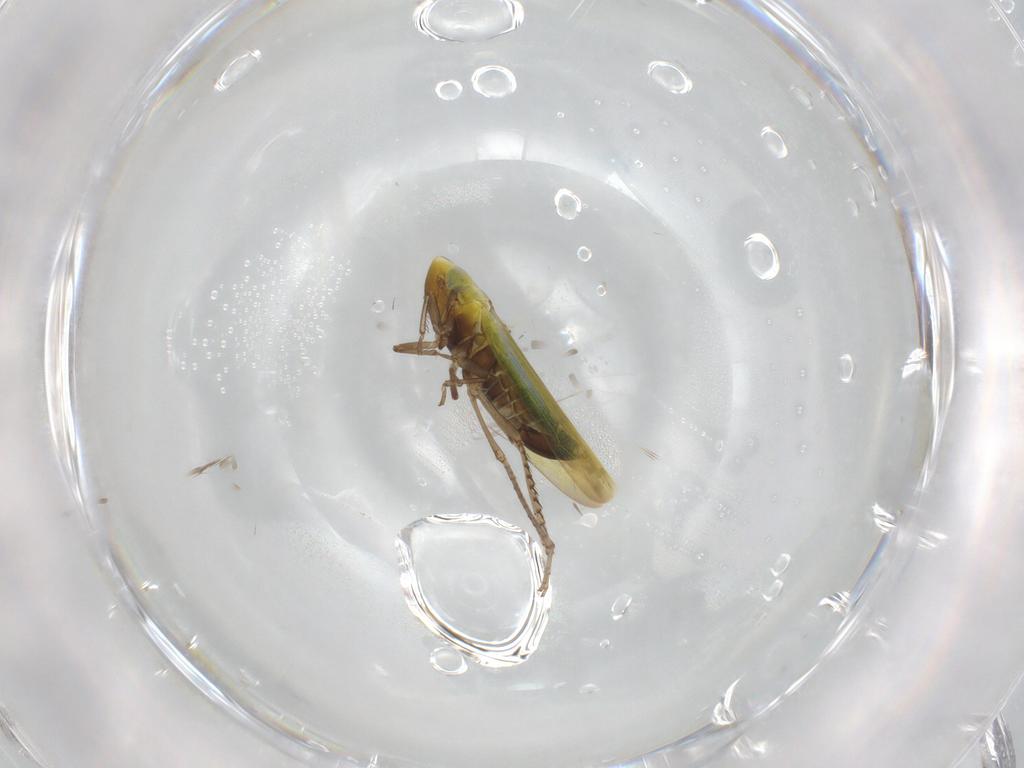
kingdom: Animalia
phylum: Arthropoda
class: Insecta
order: Hemiptera
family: Cicadellidae
